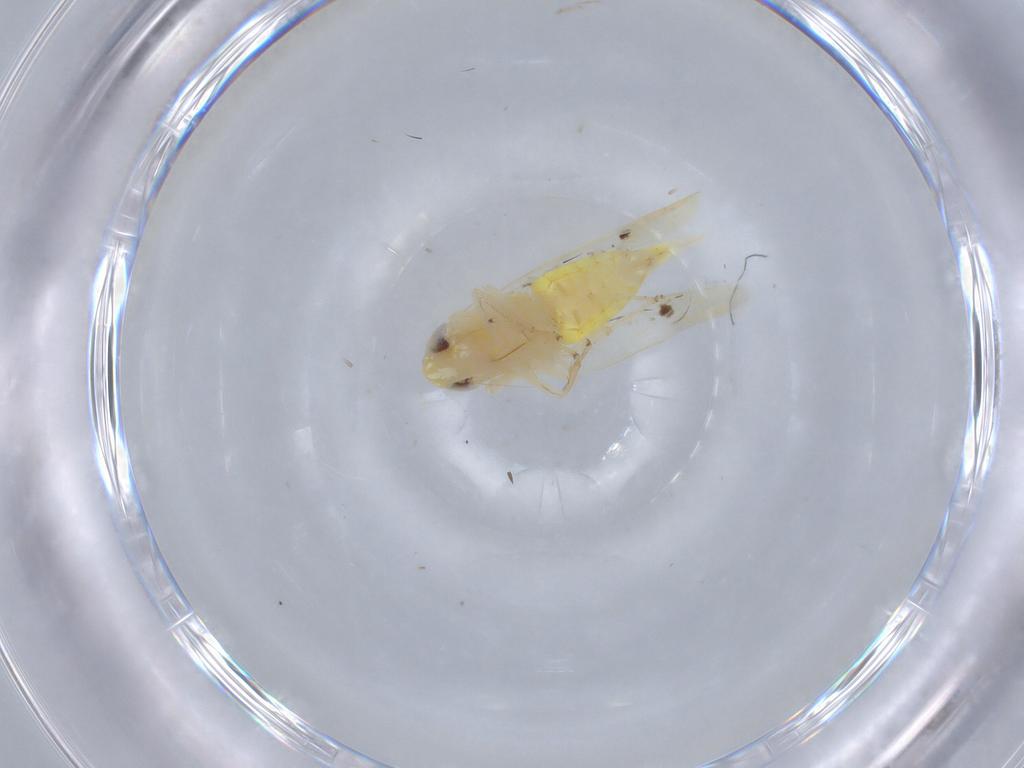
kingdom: Animalia
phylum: Arthropoda
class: Insecta
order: Hemiptera
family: Cicadellidae
